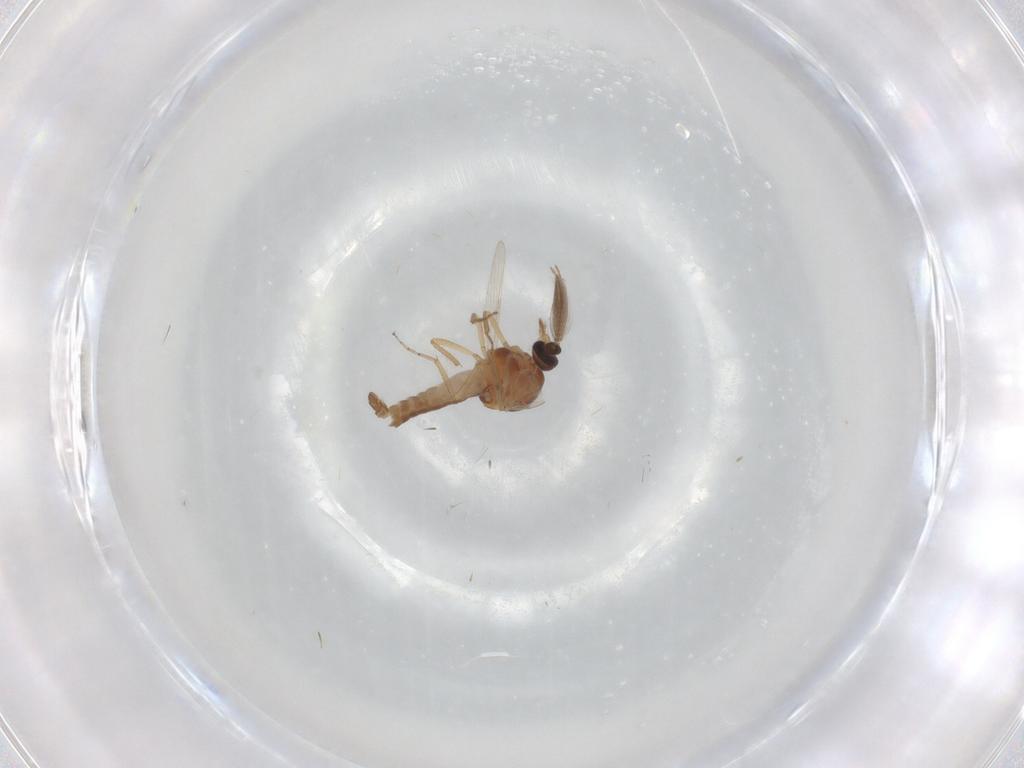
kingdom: Animalia
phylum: Arthropoda
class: Insecta
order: Diptera
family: Ceratopogonidae
